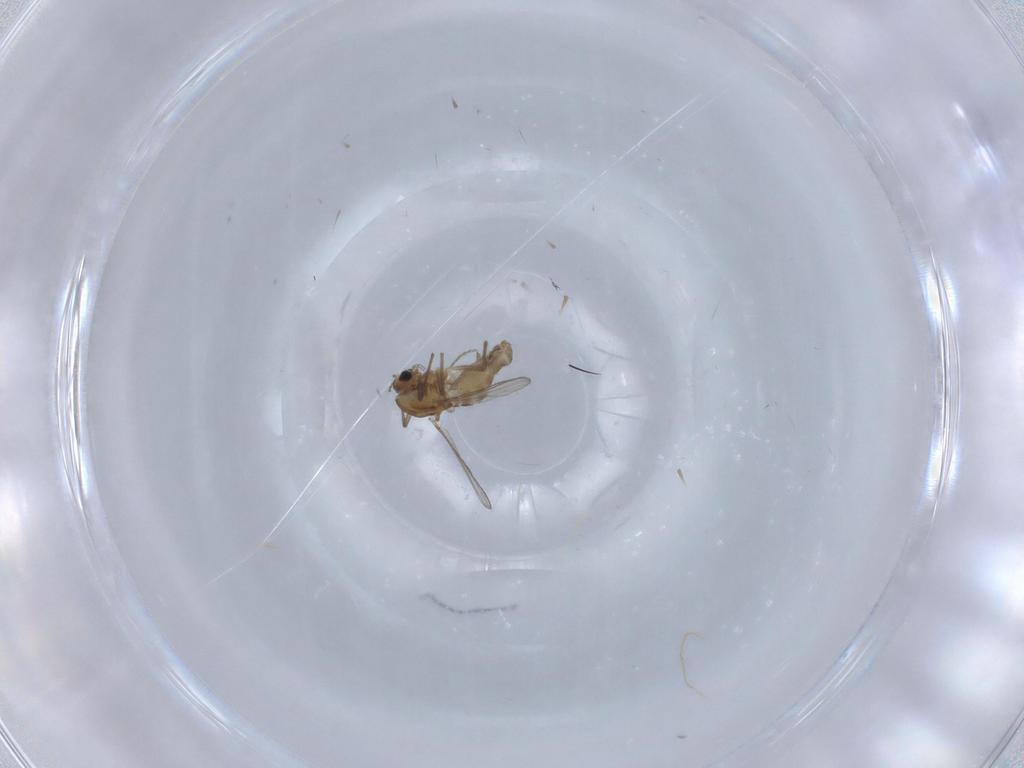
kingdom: Animalia
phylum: Arthropoda
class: Insecta
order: Diptera
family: Chironomidae
